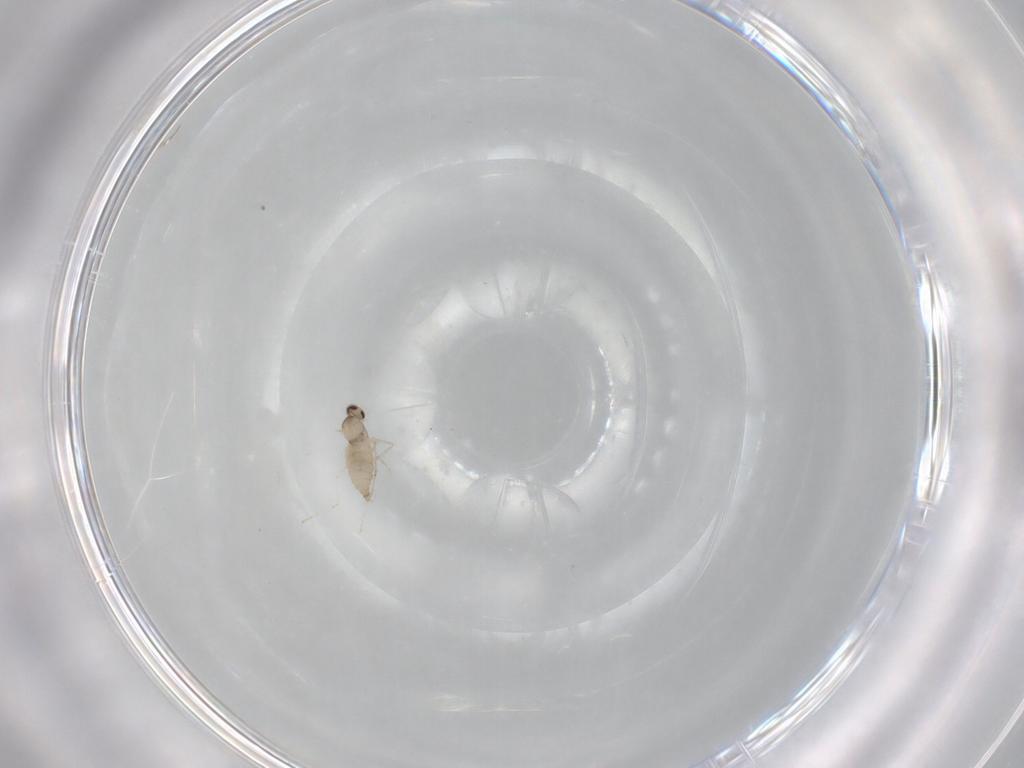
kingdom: Animalia
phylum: Arthropoda
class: Insecta
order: Diptera
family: Cecidomyiidae
